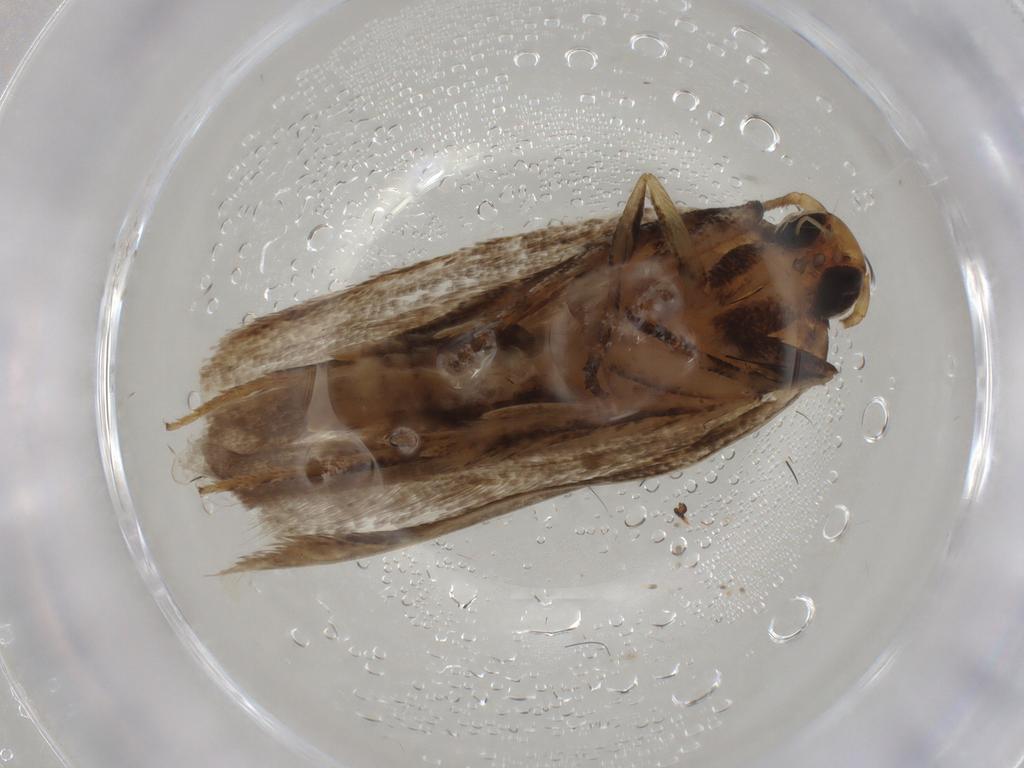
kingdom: Animalia
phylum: Arthropoda
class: Insecta
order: Lepidoptera
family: Gelechiidae
